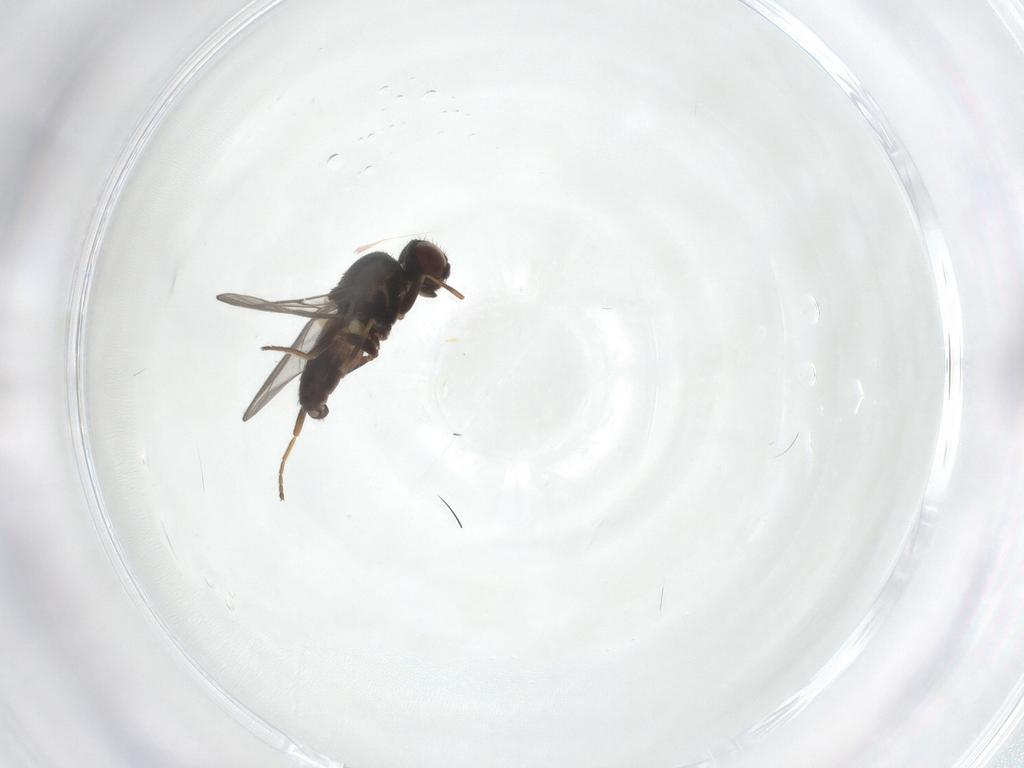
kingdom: Animalia
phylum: Arthropoda
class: Insecta
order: Diptera
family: Chloropidae
